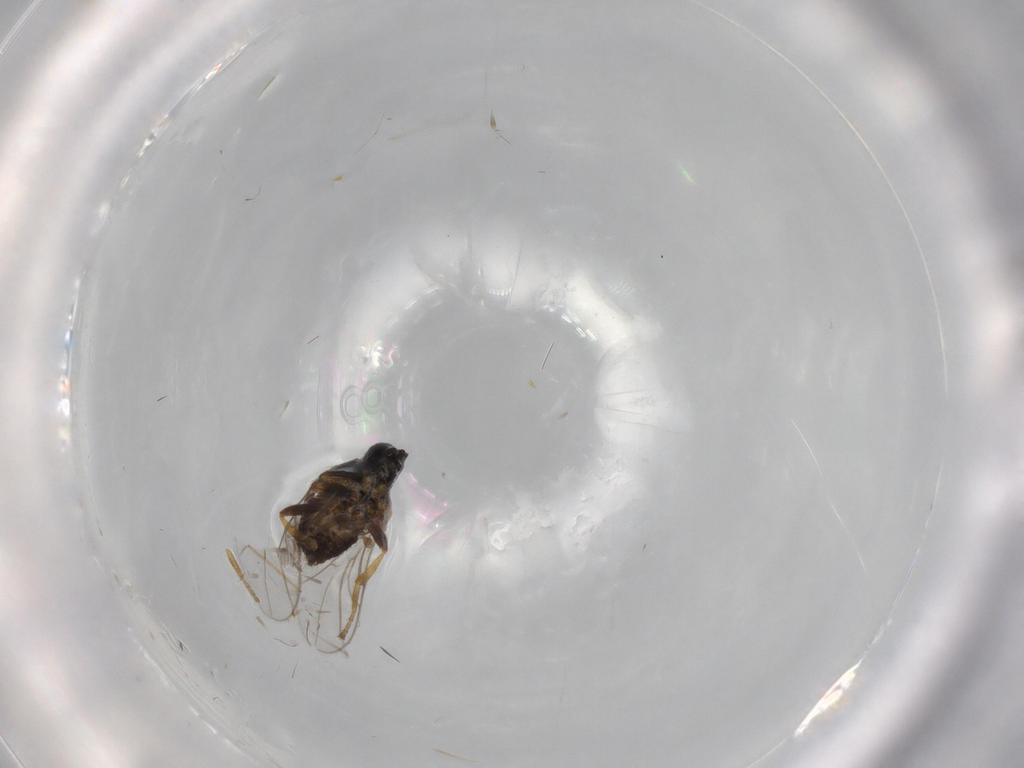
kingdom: Animalia
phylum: Arthropoda
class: Insecta
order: Diptera
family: Hybotidae
